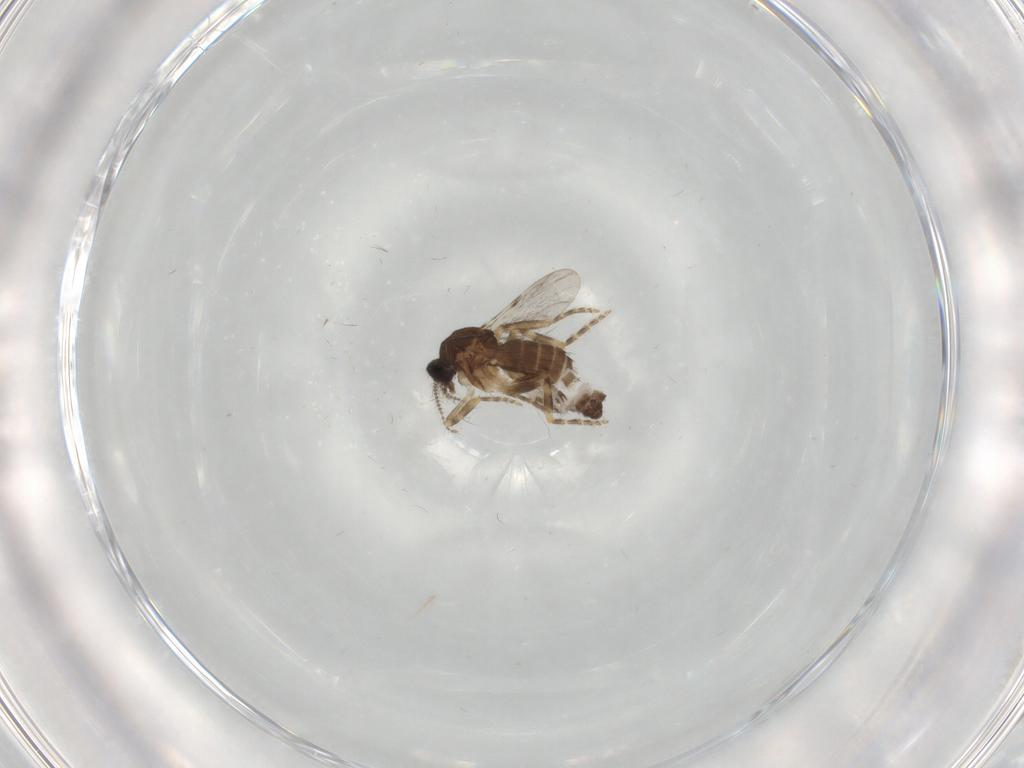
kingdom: Animalia
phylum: Arthropoda
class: Insecta
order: Diptera
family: Ceratopogonidae
